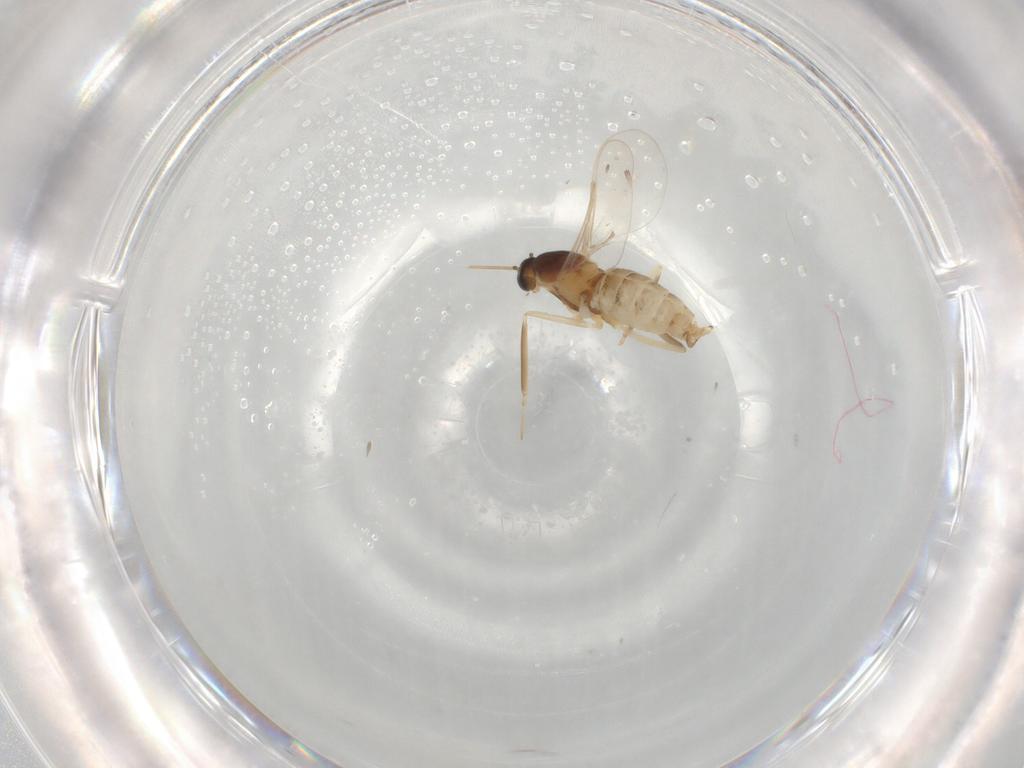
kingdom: Animalia
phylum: Arthropoda
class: Insecta
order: Diptera
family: Cecidomyiidae
